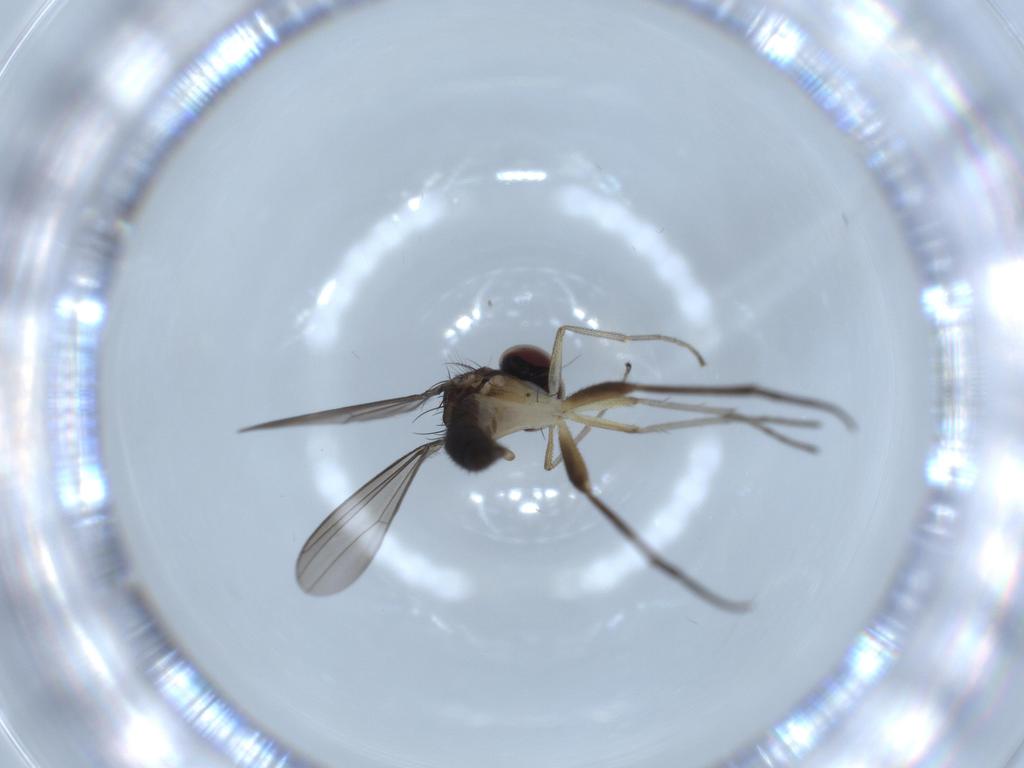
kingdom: Animalia
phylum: Arthropoda
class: Insecta
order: Diptera
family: Dolichopodidae
